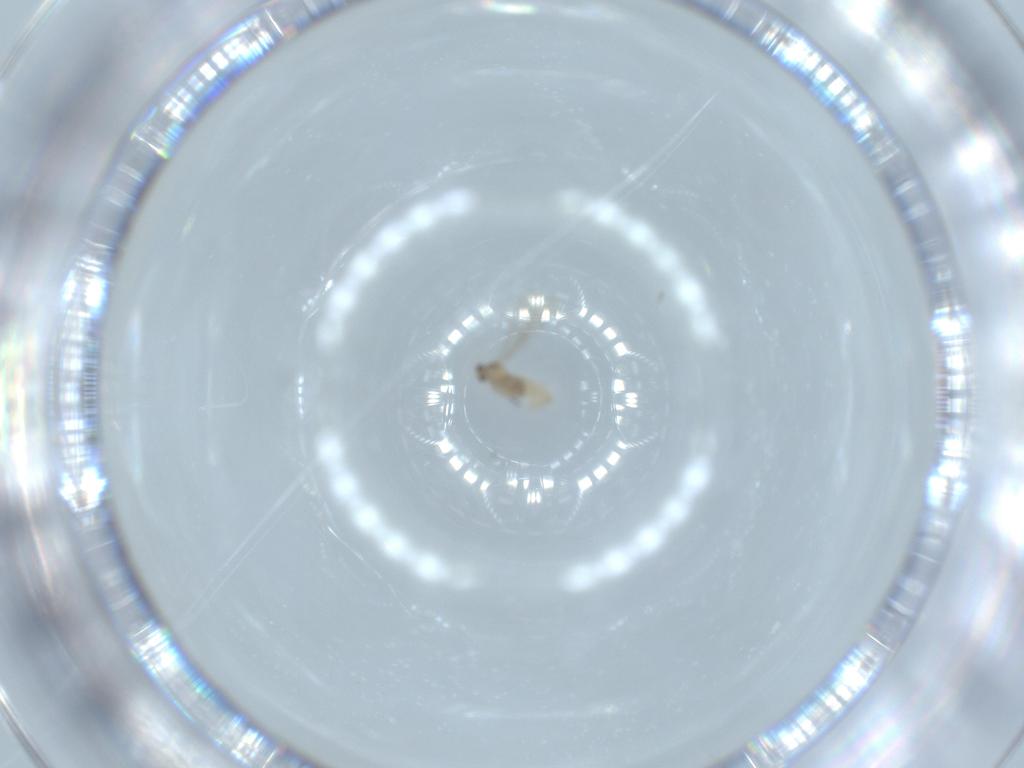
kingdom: Animalia
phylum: Arthropoda
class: Insecta
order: Diptera
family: Cecidomyiidae
